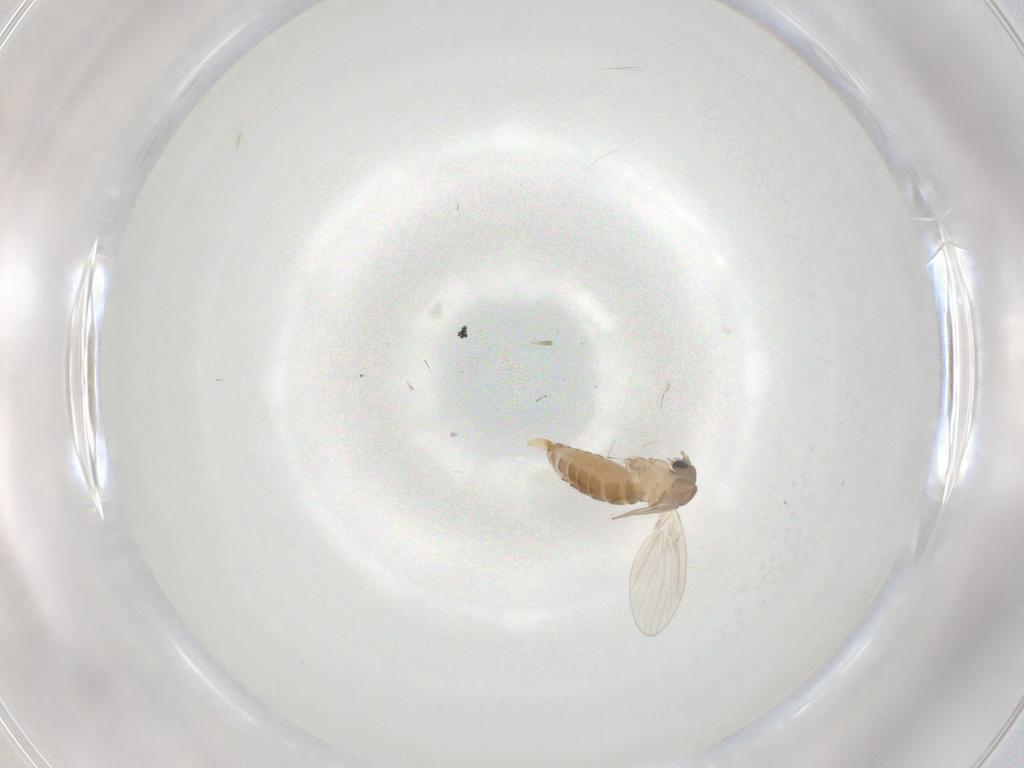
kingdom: Animalia
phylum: Arthropoda
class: Insecta
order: Diptera
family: Psychodidae
